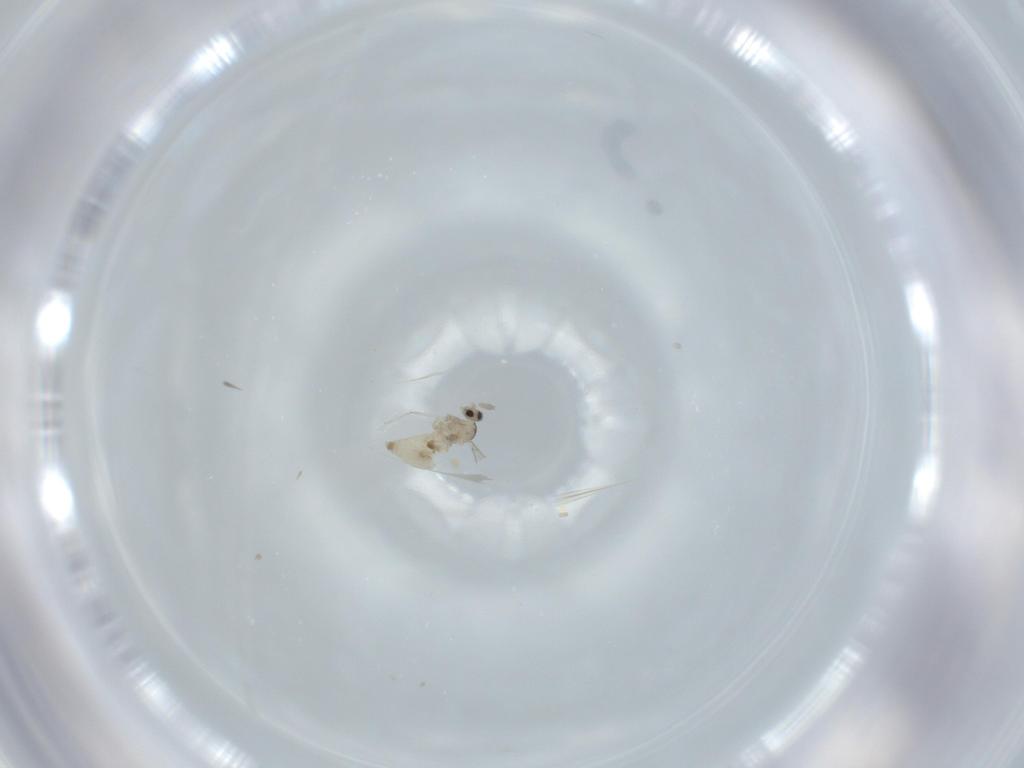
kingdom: Animalia
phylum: Arthropoda
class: Insecta
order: Diptera
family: Cecidomyiidae
